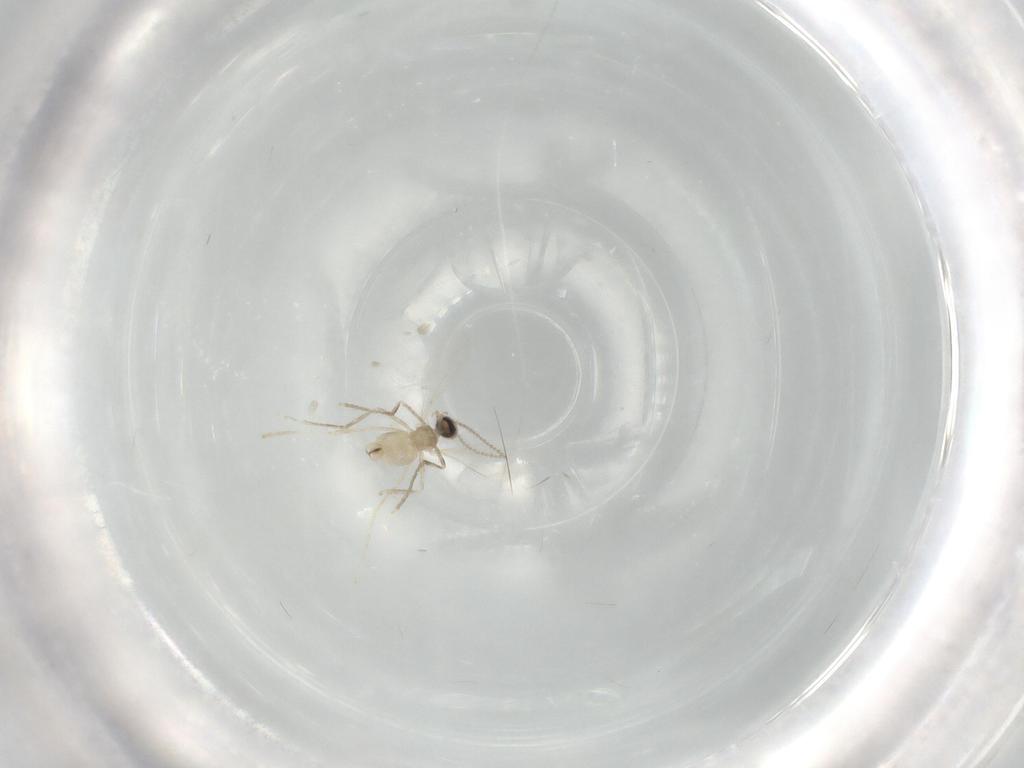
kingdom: Animalia
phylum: Arthropoda
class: Insecta
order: Diptera
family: Cecidomyiidae
